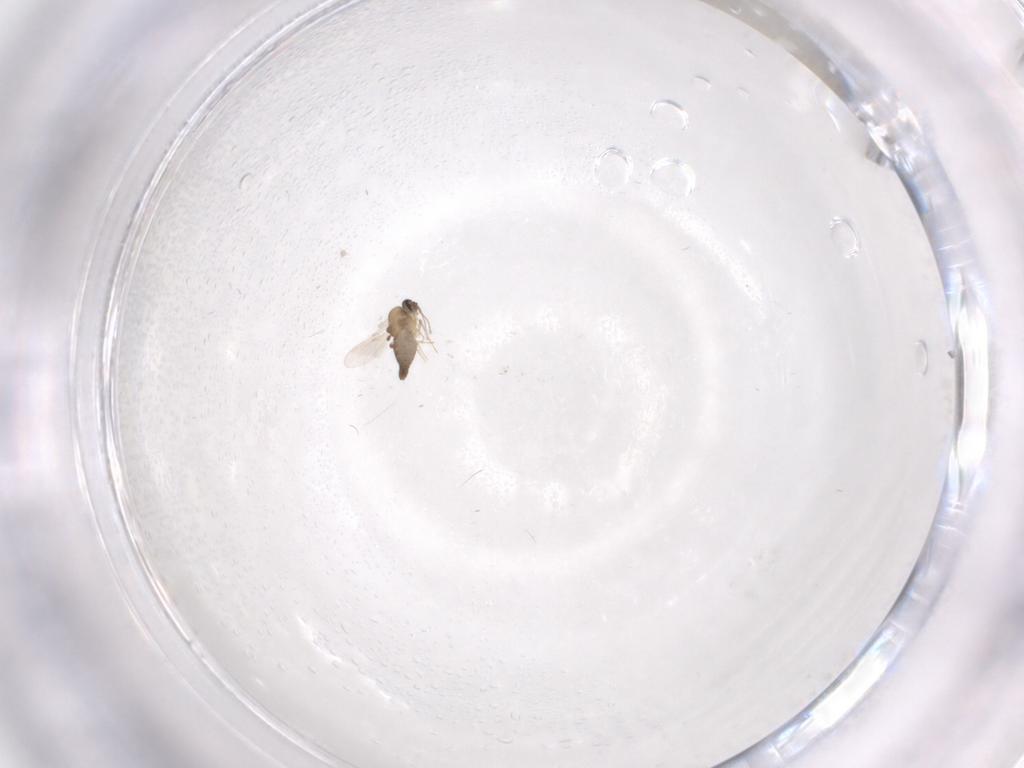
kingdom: Animalia
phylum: Arthropoda
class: Insecta
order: Diptera
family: Ceratopogonidae
